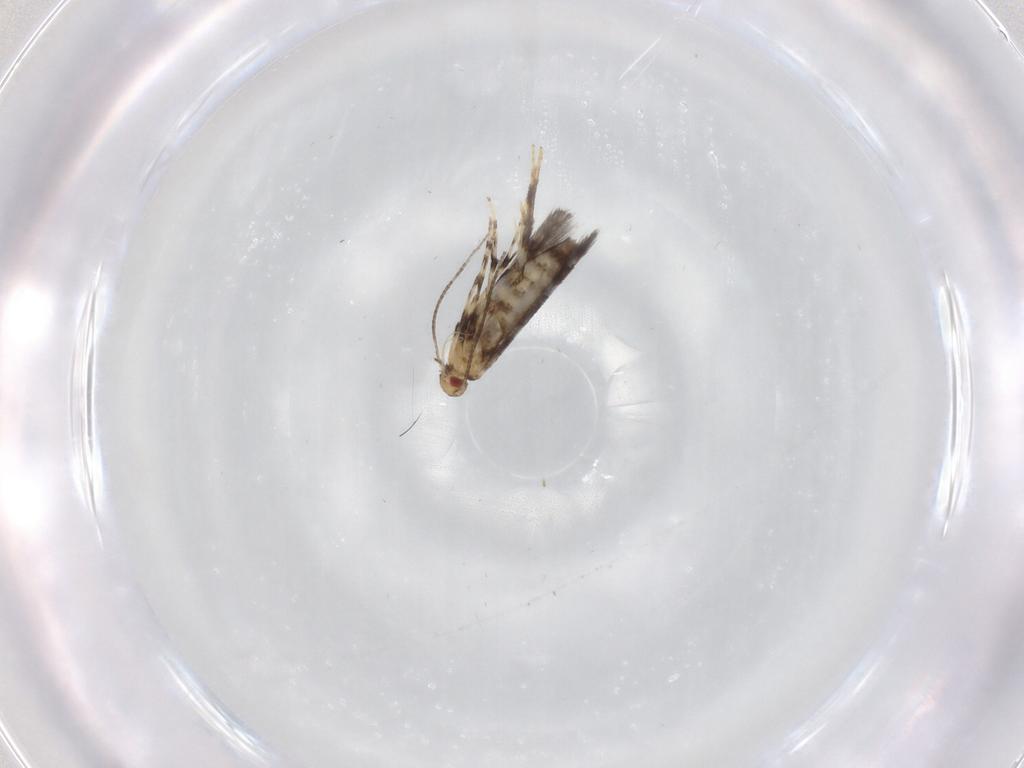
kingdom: Animalia
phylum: Arthropoda
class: Insecta
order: Lepidoptera
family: Gracillariidae
